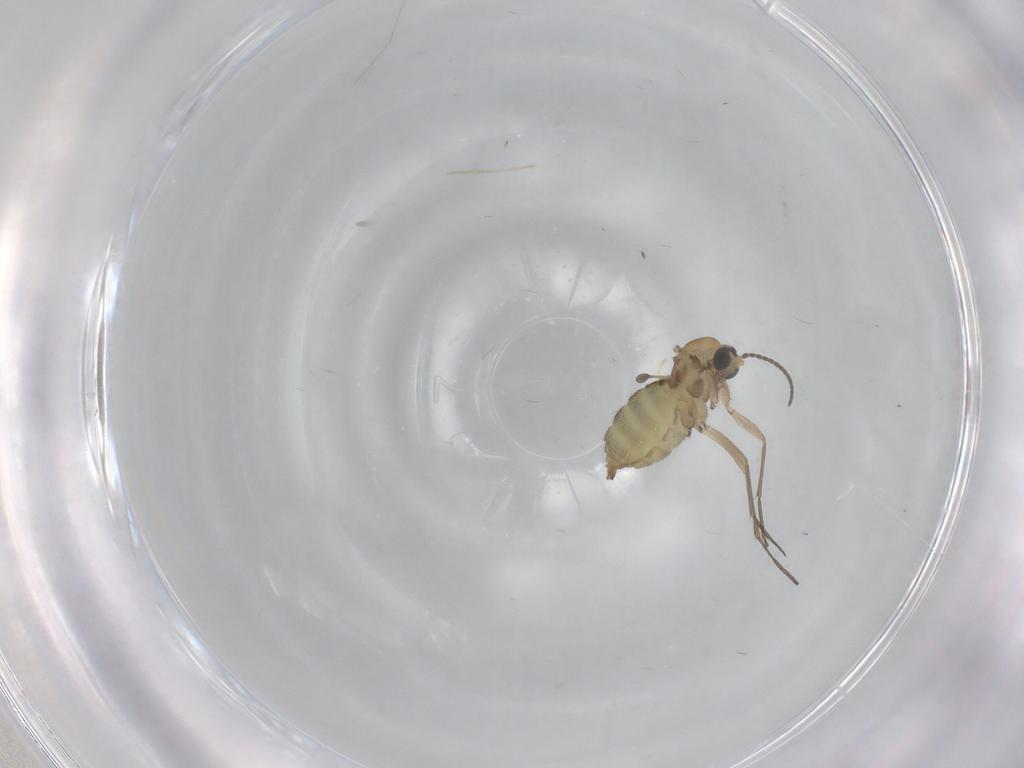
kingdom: Animalia
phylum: Arthropoda
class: Insecta
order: Diptera
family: Sciaridae
